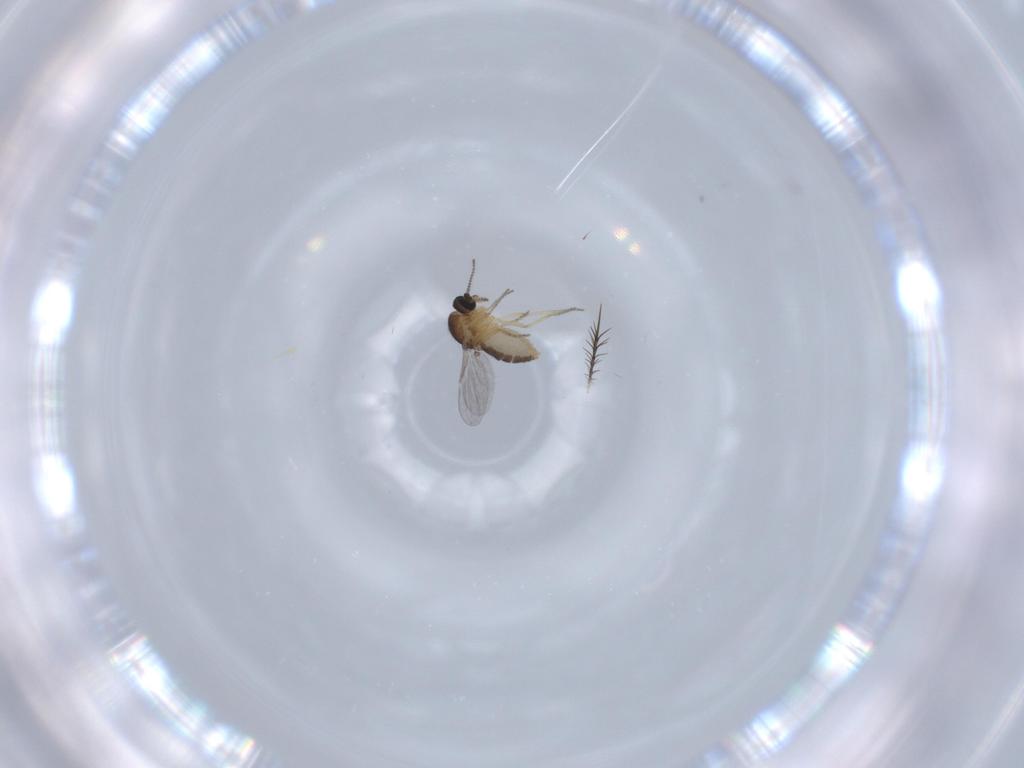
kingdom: Animalia
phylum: Arthropoda
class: Insecta
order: Diptera
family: Ceratopogonidae
